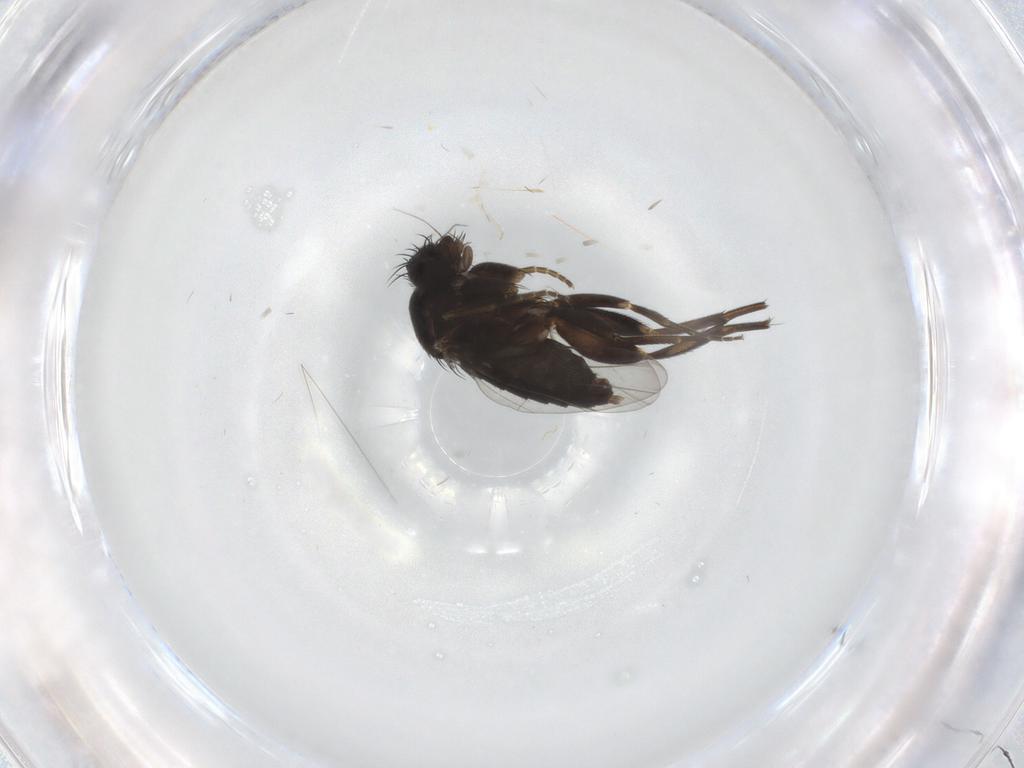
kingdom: Animalia
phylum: Arthropoda
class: Insecta
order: Diptera
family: Phoridae
